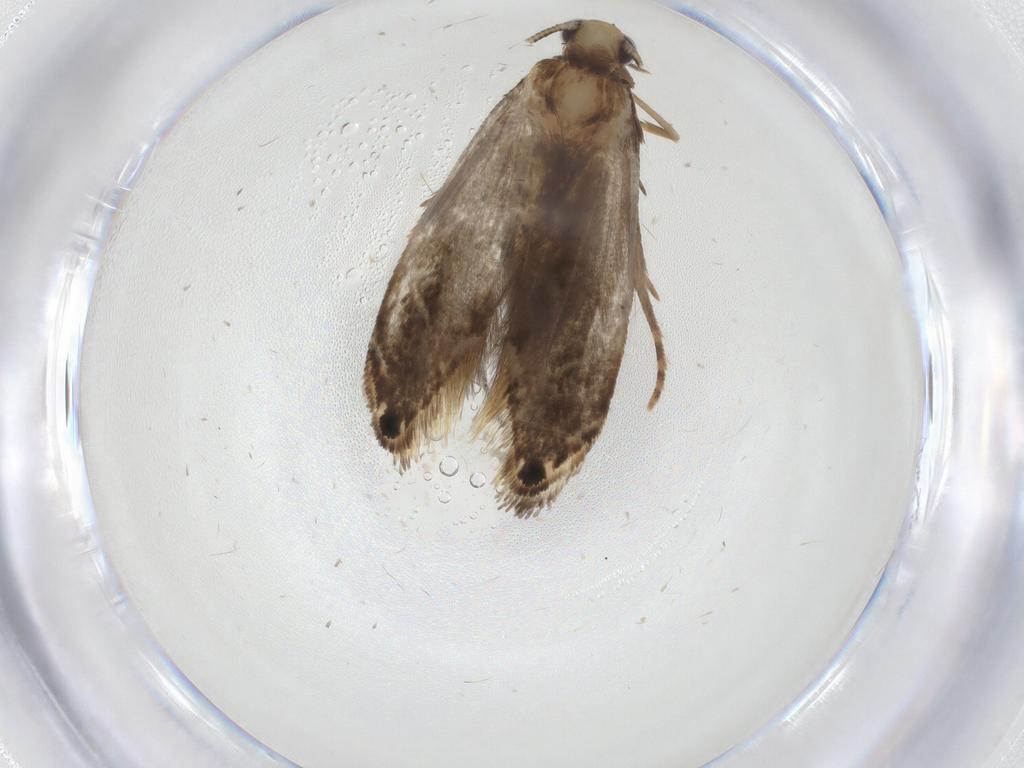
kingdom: Animalia
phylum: Arthropoda
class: Insecta
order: Lepidoptera
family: Tineidae
